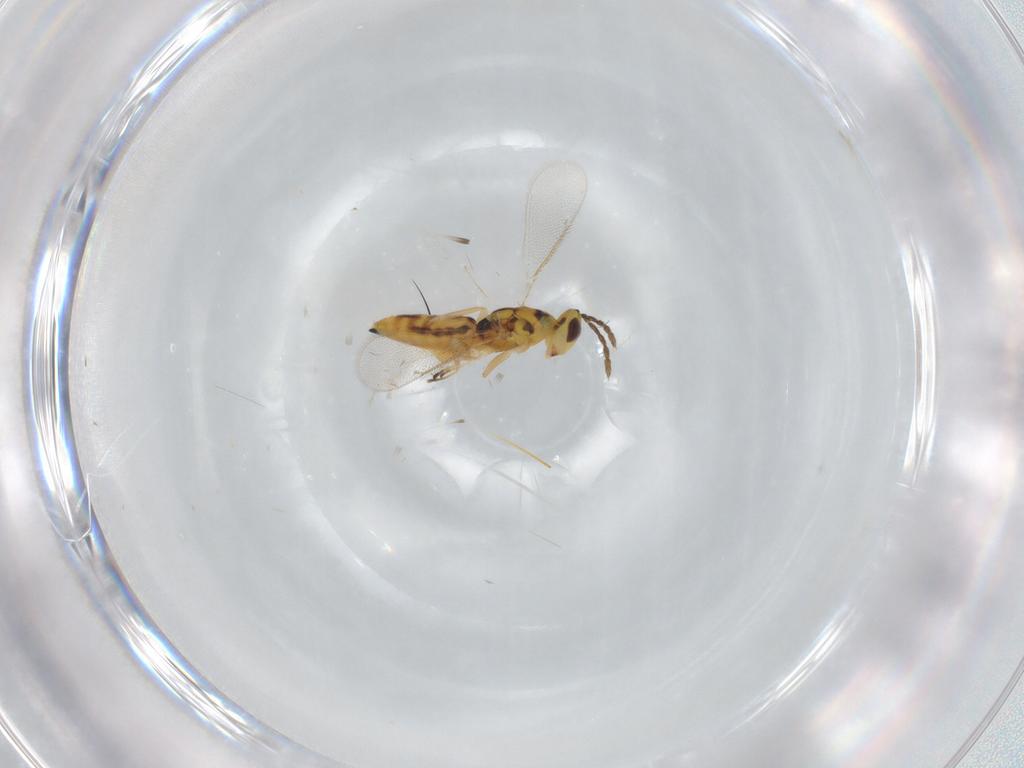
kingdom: Animalia
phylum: Arthropoda
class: Insecta
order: Hymenoptera
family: Eulophidae
